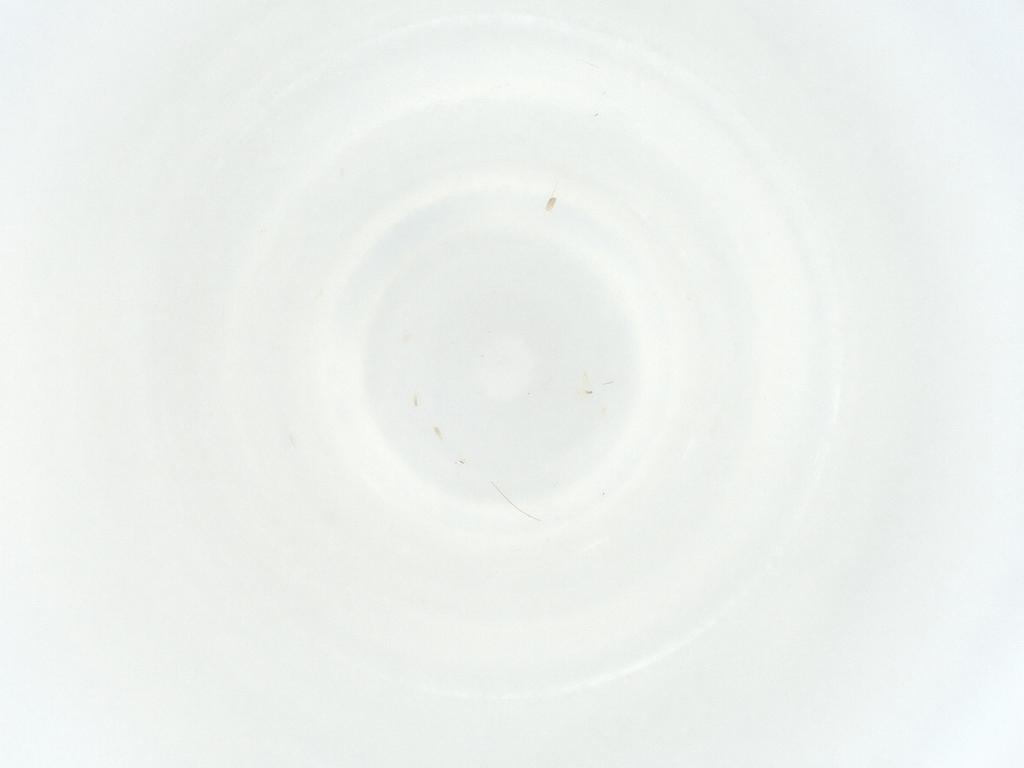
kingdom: Animalia
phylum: Arthropoda
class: Insecta
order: Hemiptera
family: Anthocoridae
